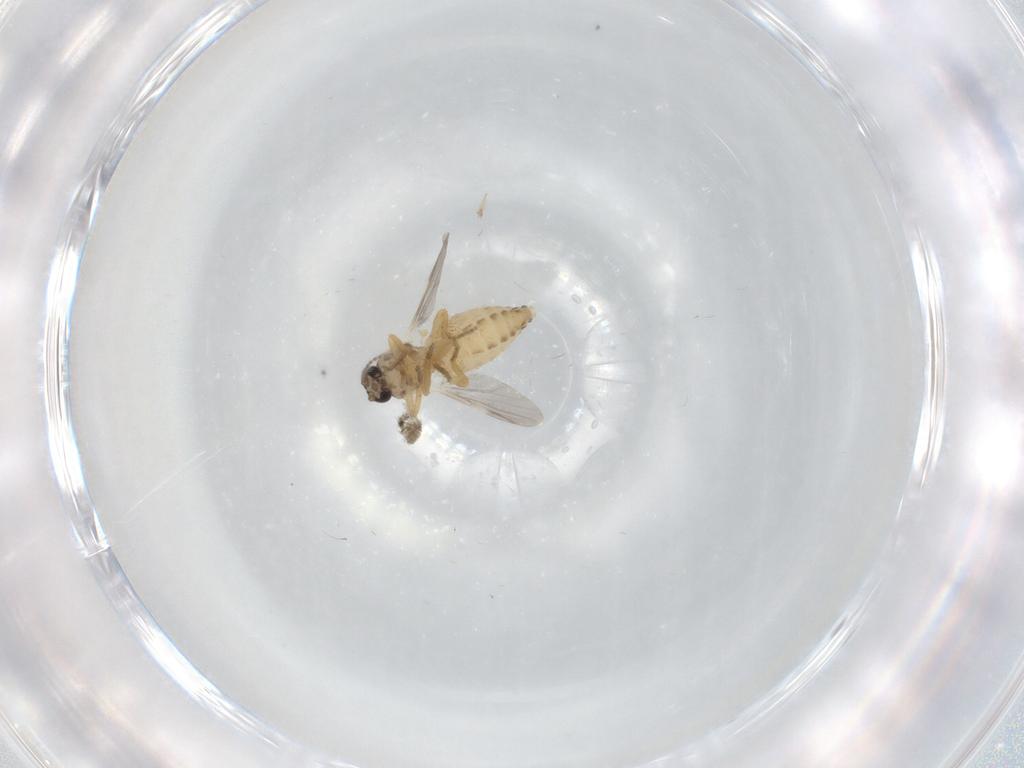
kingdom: Animalia
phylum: Arthropoda
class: Insecta
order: Diptera
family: Ceratopogonidae
